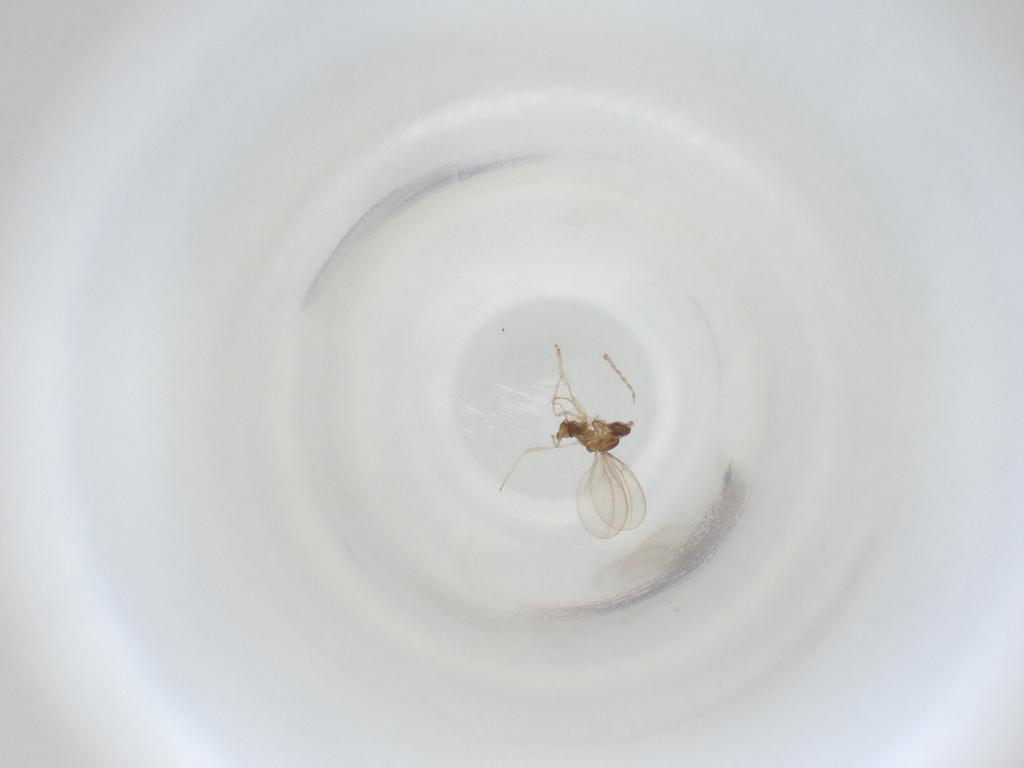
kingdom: Animalia
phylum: Arthropoda
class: Insecta
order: Diptera
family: Cecidomyiidae
